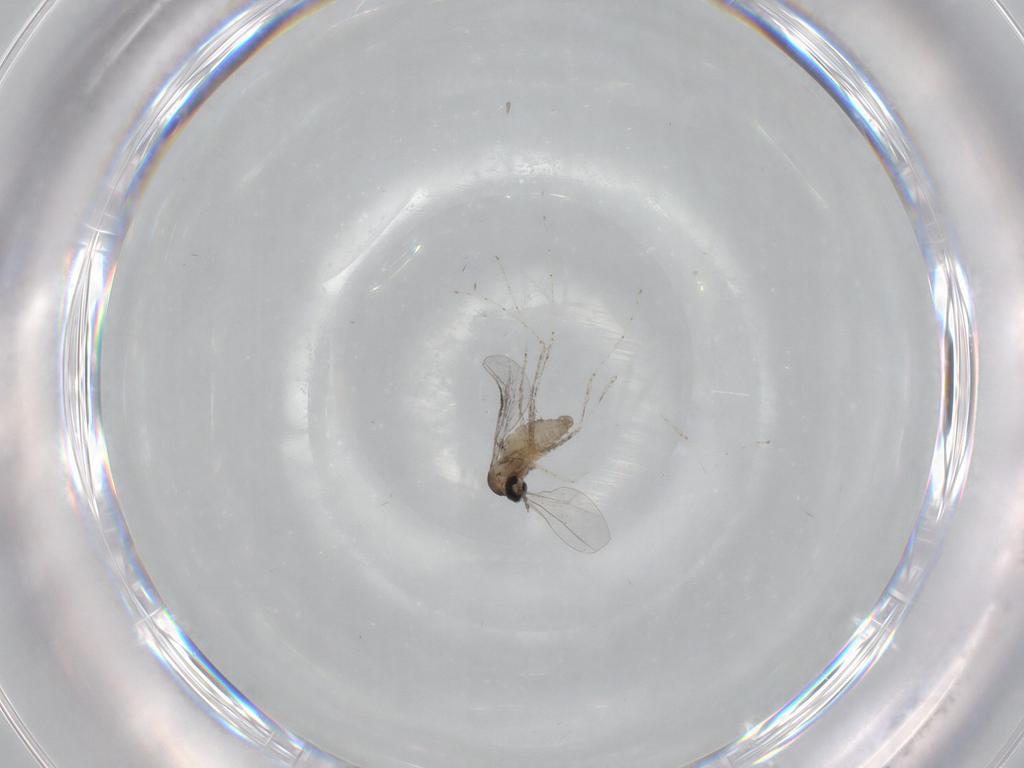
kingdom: Animalia
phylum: Arthropoda
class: Insecta
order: Diptera
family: Cecidomyiidae
